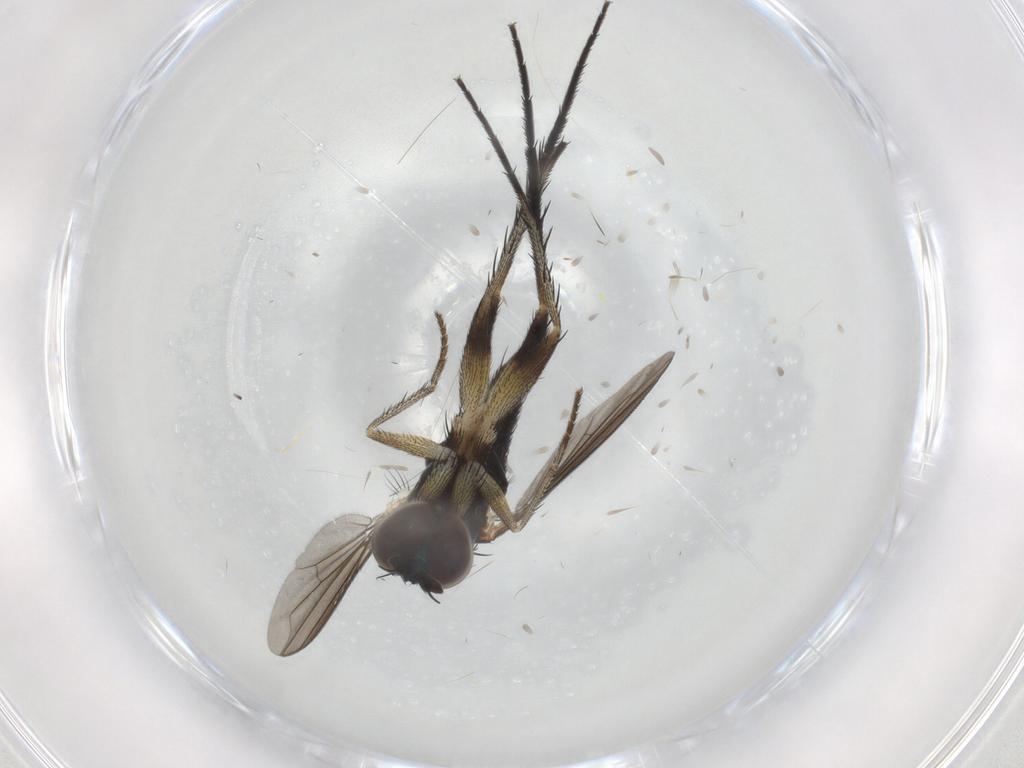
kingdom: Animalia
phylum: Arthropoda
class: Insecta
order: Diptera
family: Dolichopodidae
